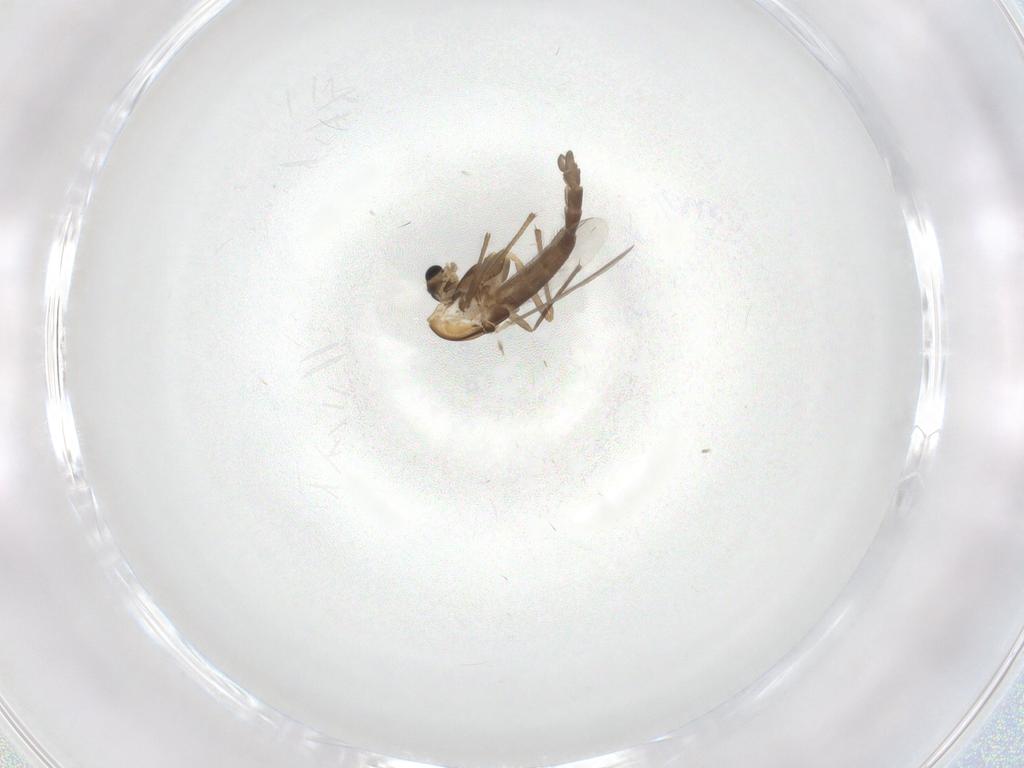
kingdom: Animalia
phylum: Arthropoda
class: Insecta
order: Diptera
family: Chironomidae
